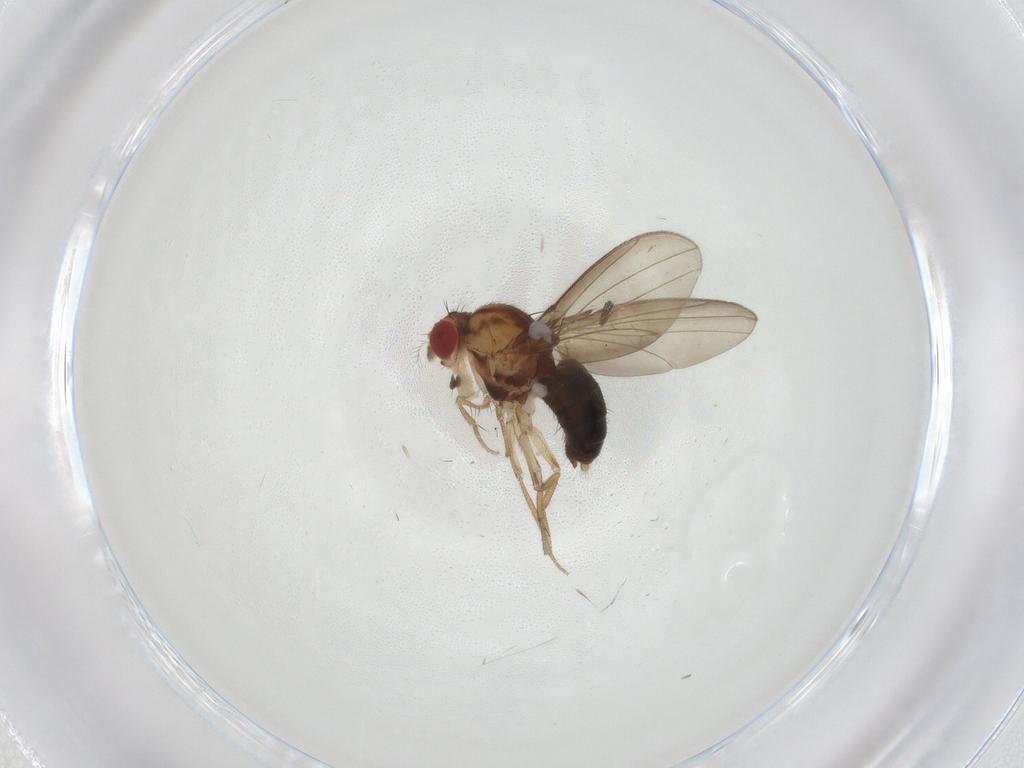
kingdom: Animalia
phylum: Arthropoda
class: Insecta
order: Diptera
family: Drosophilidae
